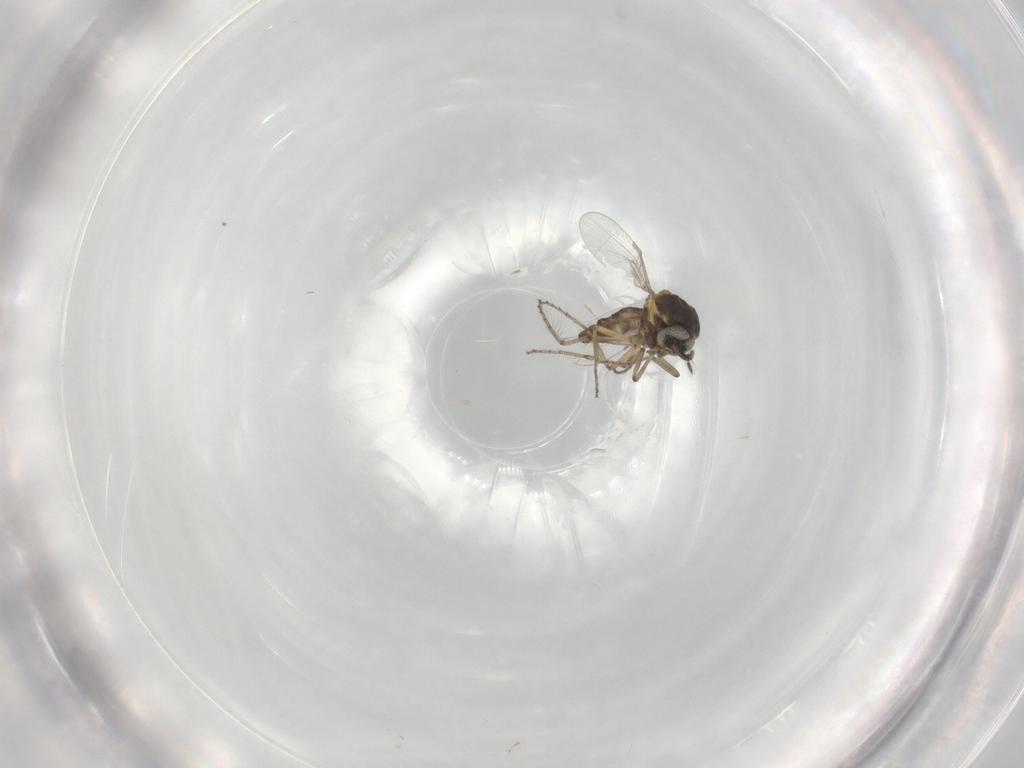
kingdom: Animalia
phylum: Arthropoda
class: Insecta
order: Diptera
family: Ceratopogonidae
